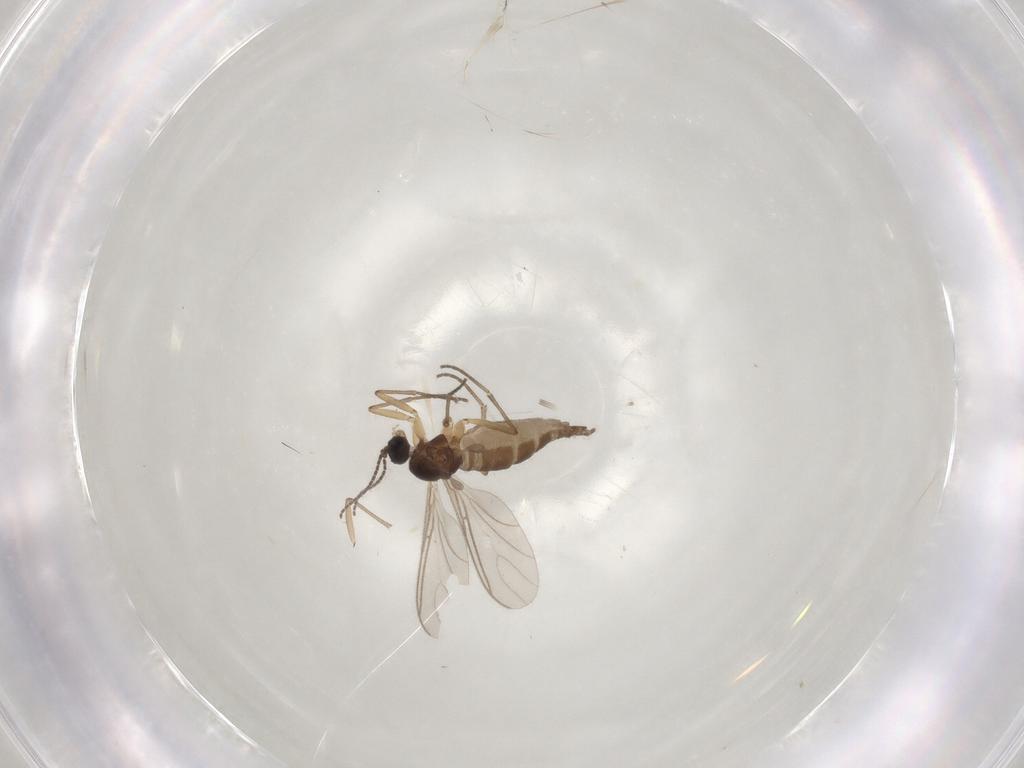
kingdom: Animalia
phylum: Arthropoda
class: Insecta
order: Diptera
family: Sciaridae
